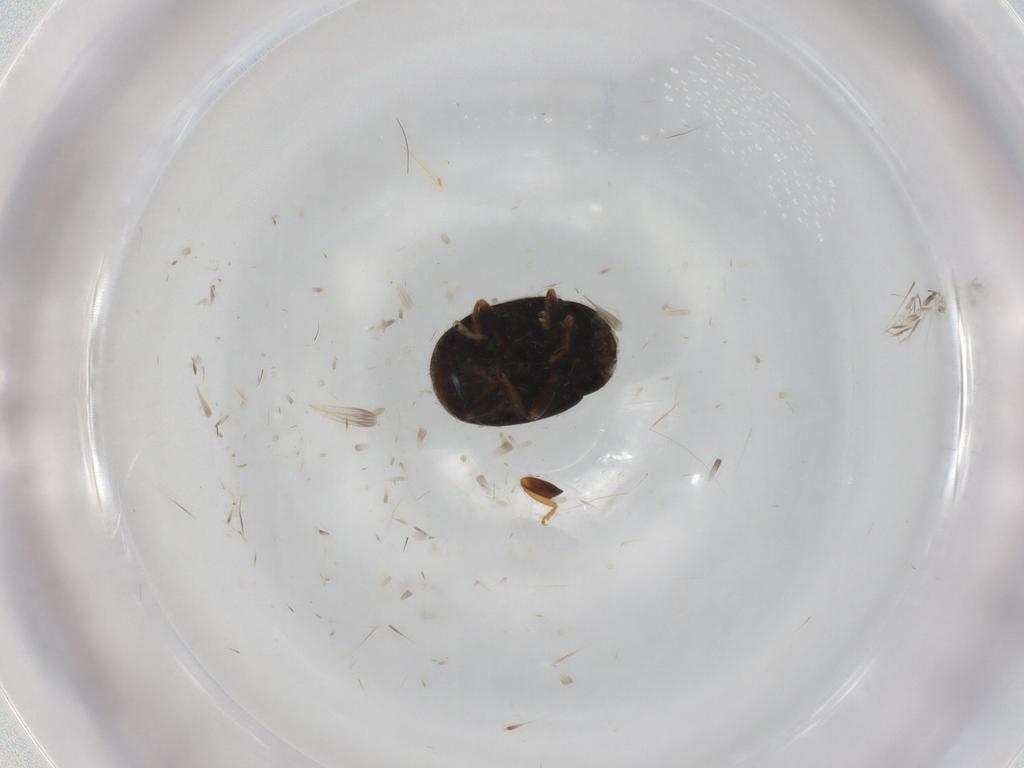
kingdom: Animalia
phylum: Arthropoda
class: Insecta
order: Coleoptera
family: Coccinellidae
